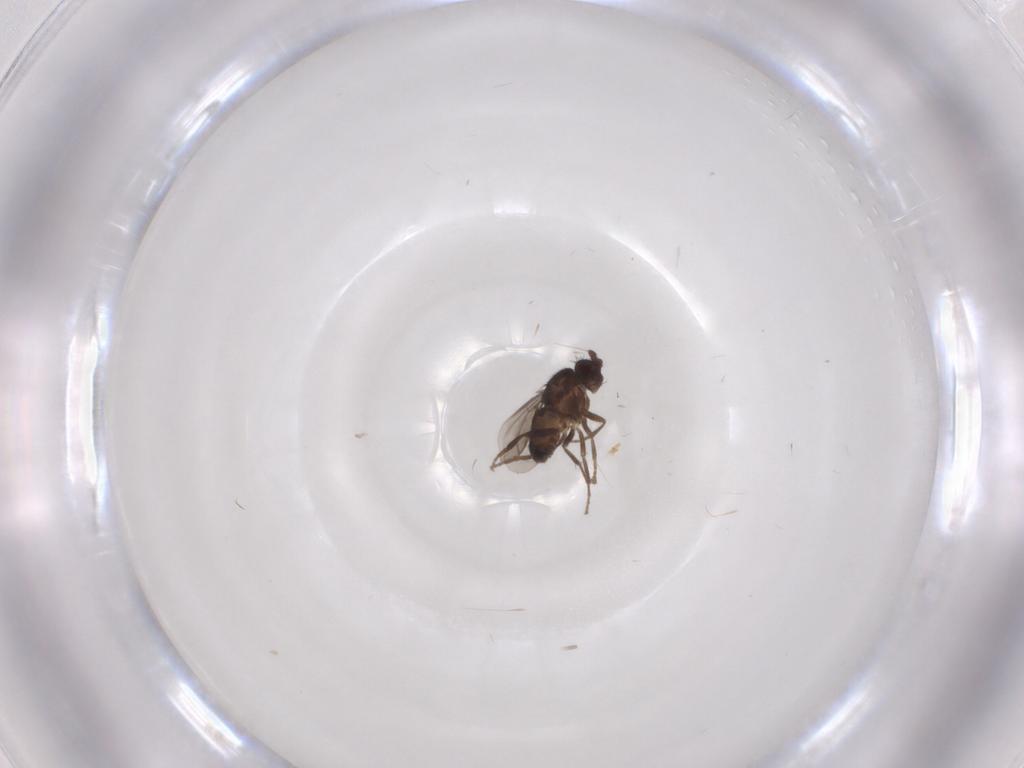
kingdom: Animalia
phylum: Arthropoda
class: Insecta
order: Diptera
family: Sphaeroceridae
